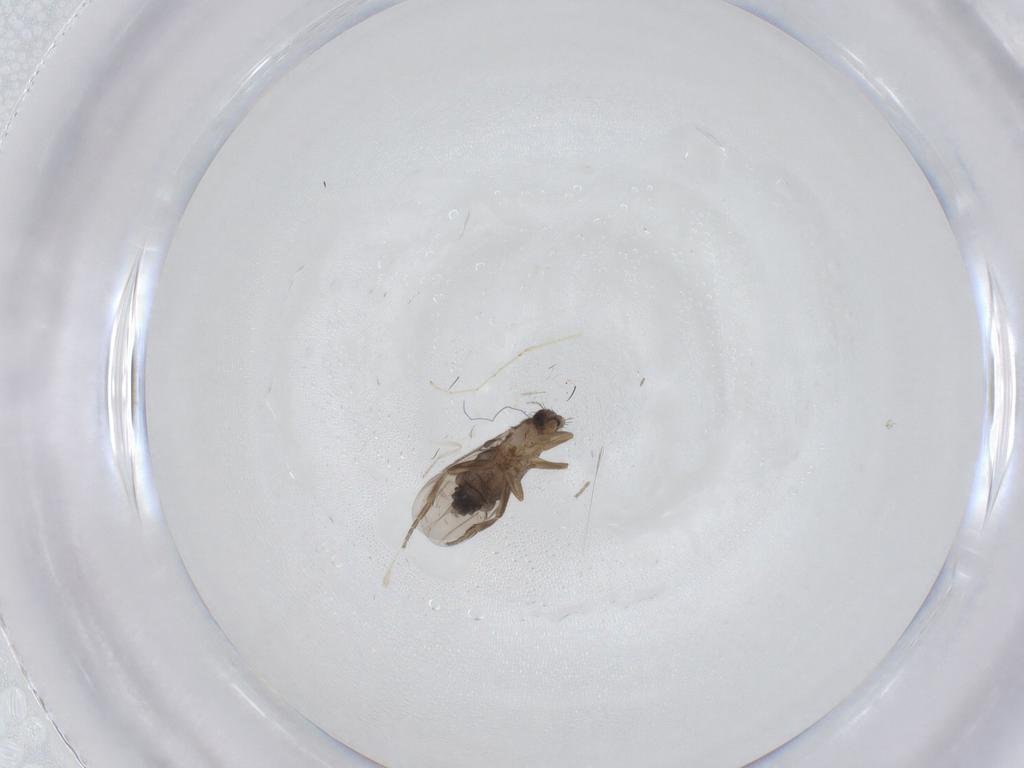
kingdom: Animalia
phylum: Arthropoda
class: Insecta
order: Diptera
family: Phoridae
